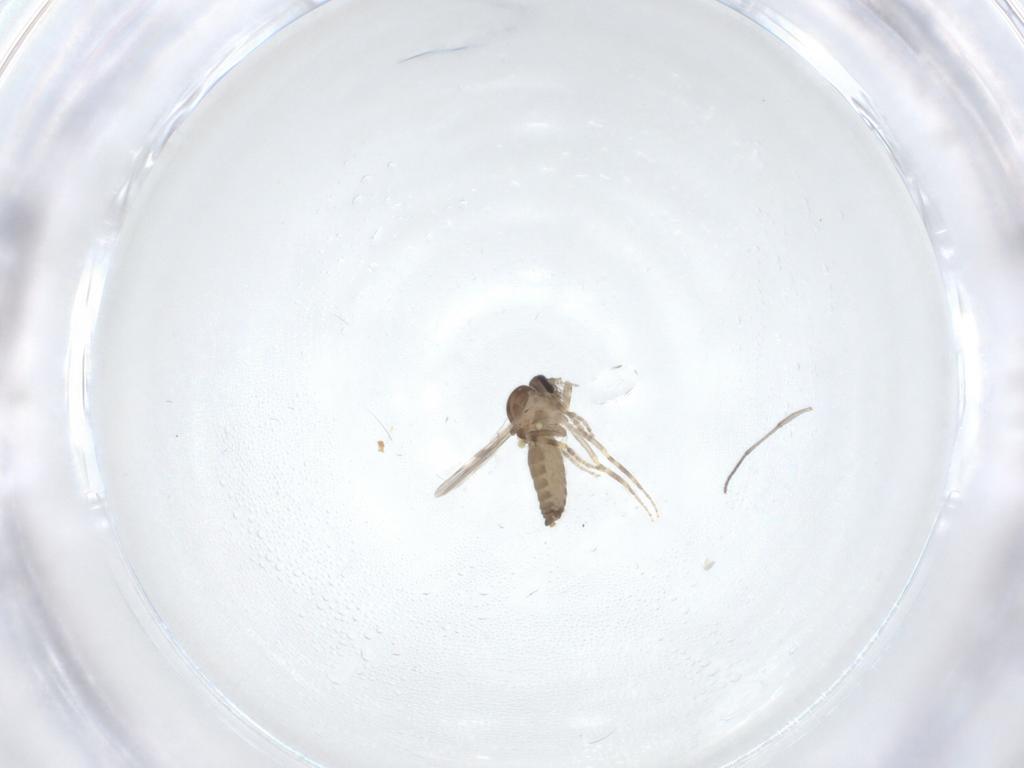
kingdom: Animalia
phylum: Arthropoda
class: Insecta
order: Diptera
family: Ceratopogonidae
